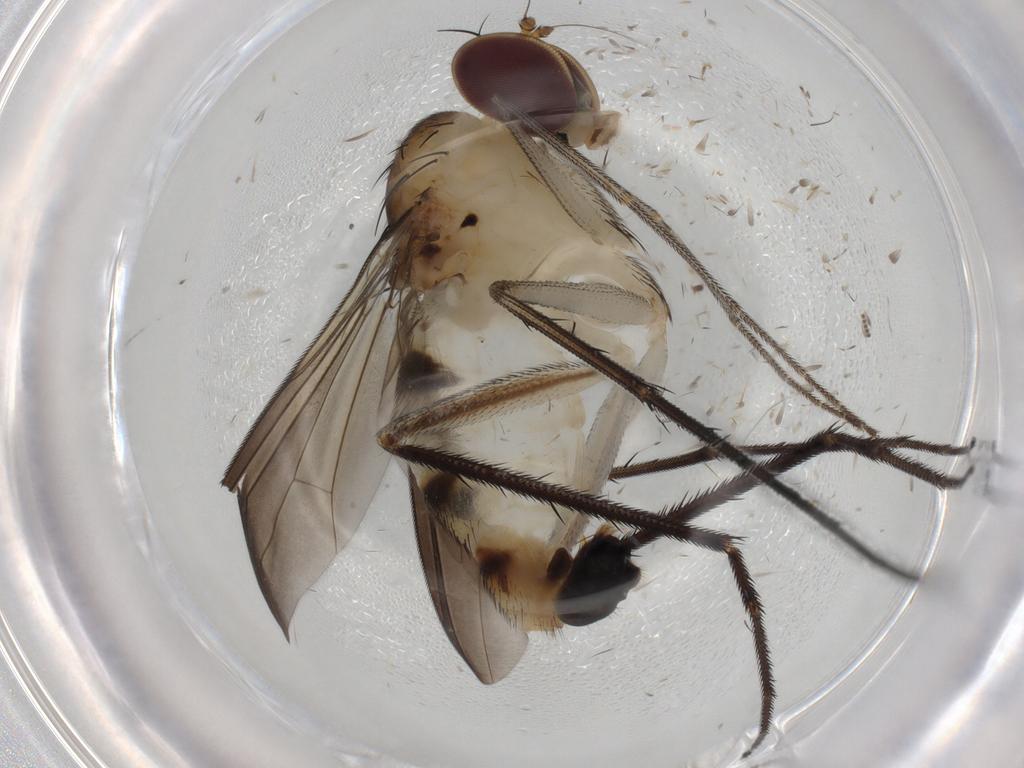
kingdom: Animalia
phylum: Arthropoda
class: Insecta
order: Diptera
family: Dolichopodidae
